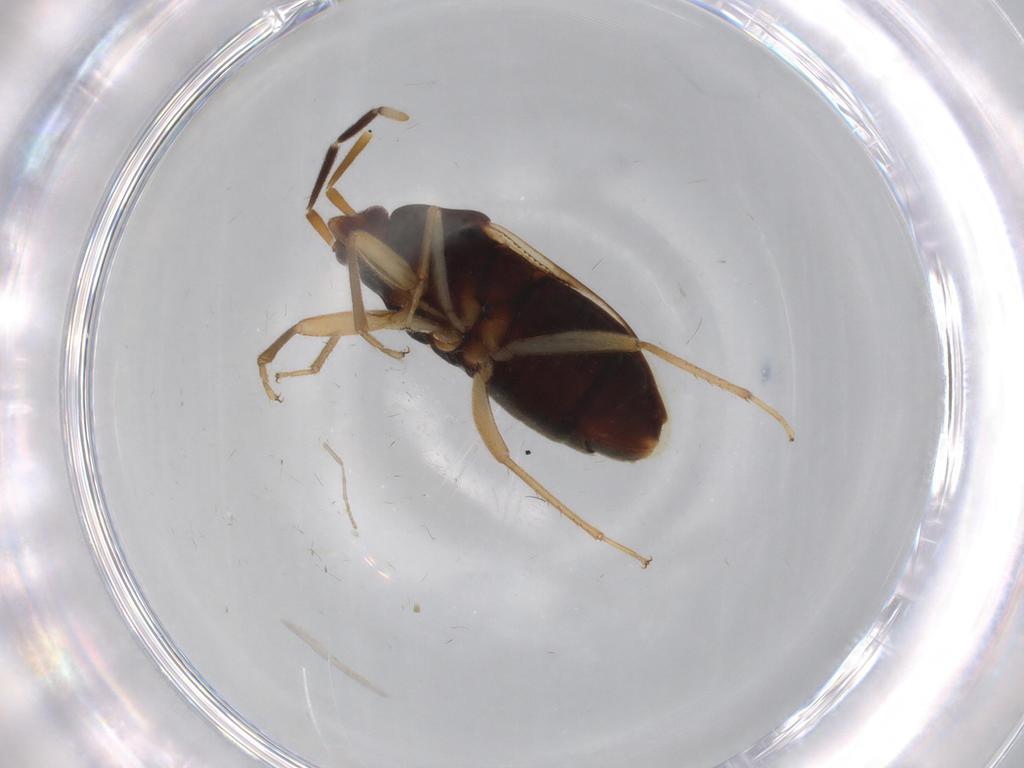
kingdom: Animalia
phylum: Arthropoda
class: Insecta
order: Hemiptera
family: Rhyparochromidae
